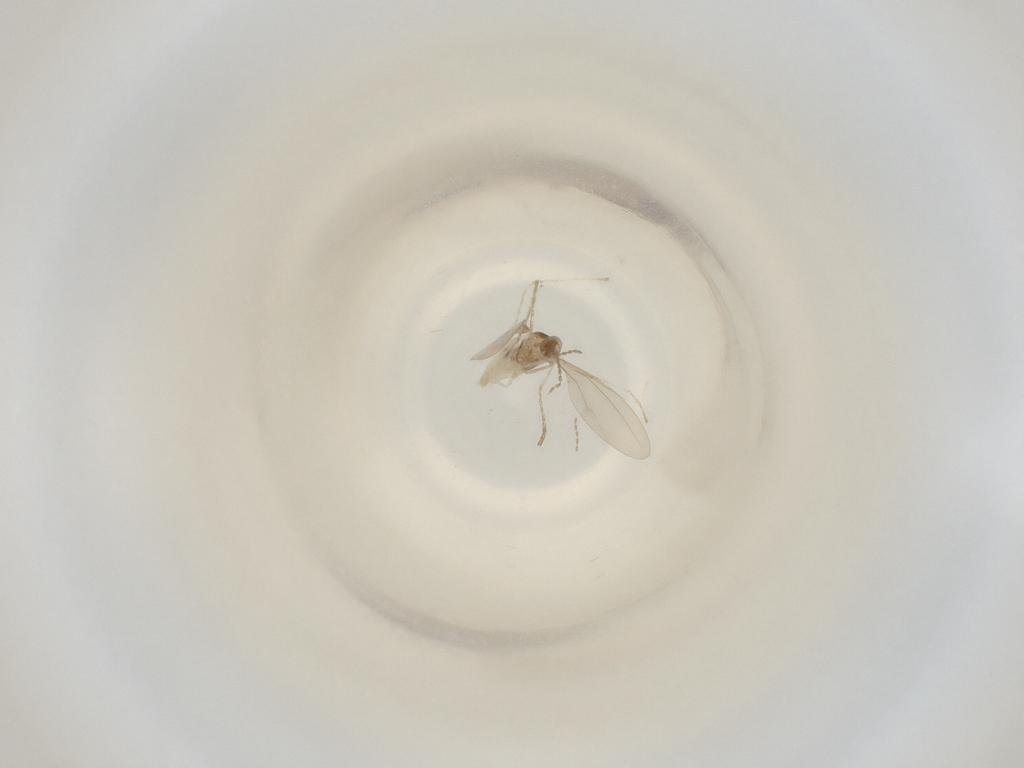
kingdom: Animalia
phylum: Arthropoda
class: Insecta
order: Diptera
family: Cecidomyiidae
